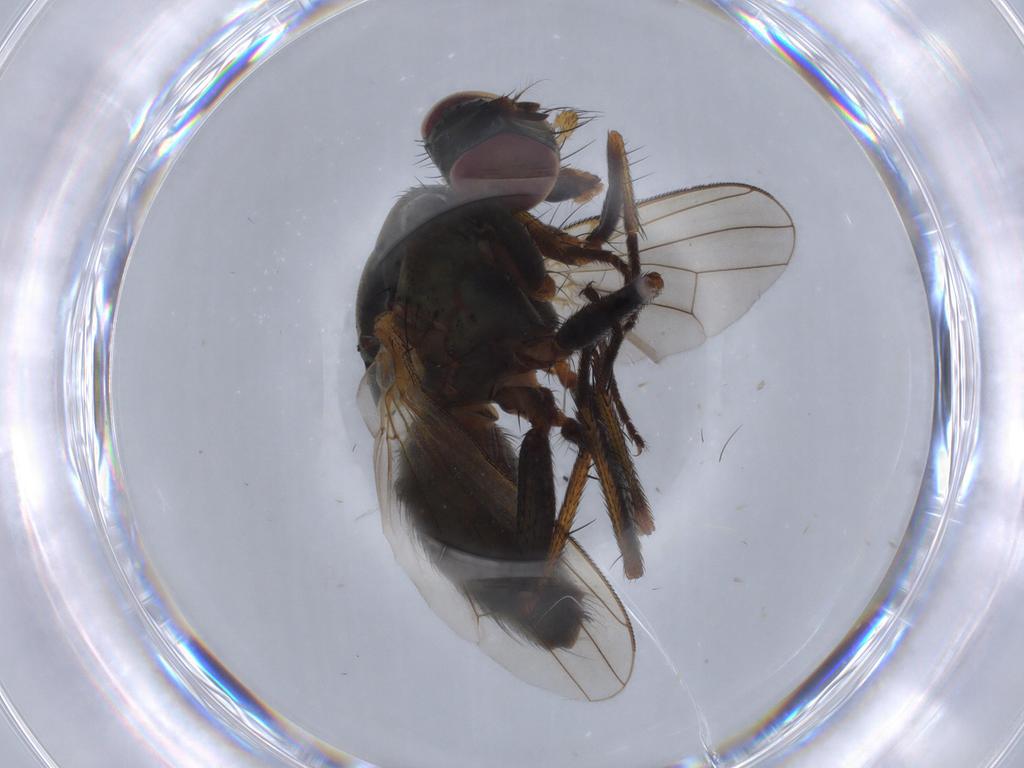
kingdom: Animalia
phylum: Arthropoda
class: Insecta
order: Diptera
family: Dolichopodidae
